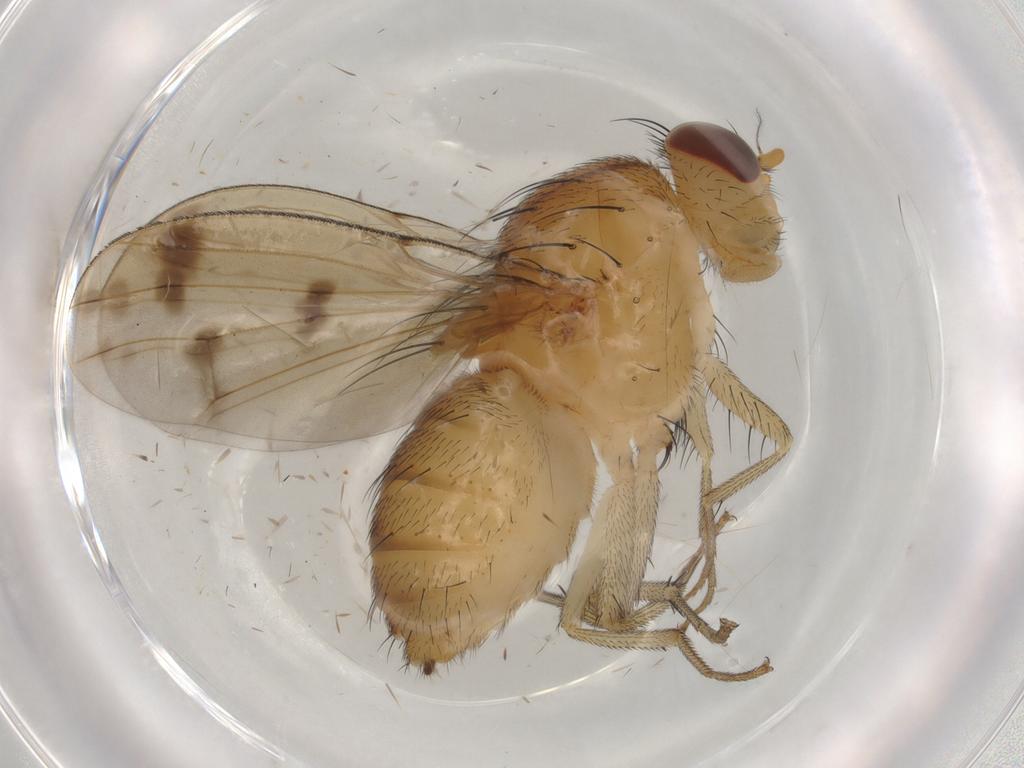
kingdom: Animalia
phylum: Arthropoda
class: Insecta
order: Diptera
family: Lauxaniidae
